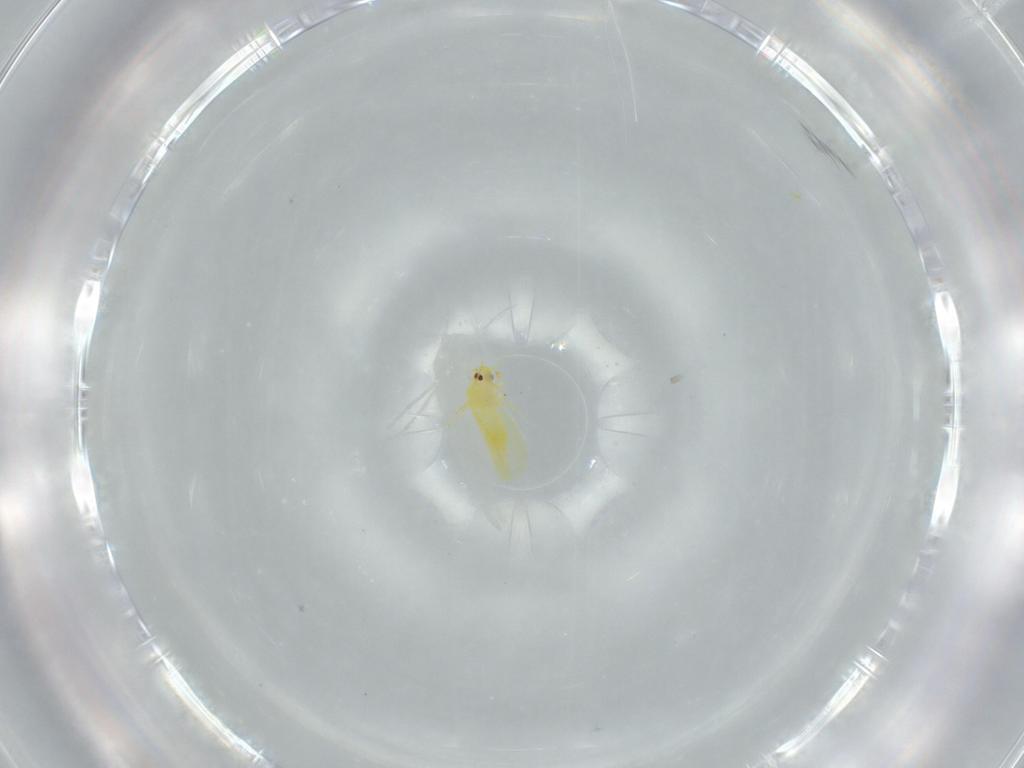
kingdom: Animalia
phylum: Arthropoda
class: Insecta
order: Hemiptera
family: Aleyrodidae
